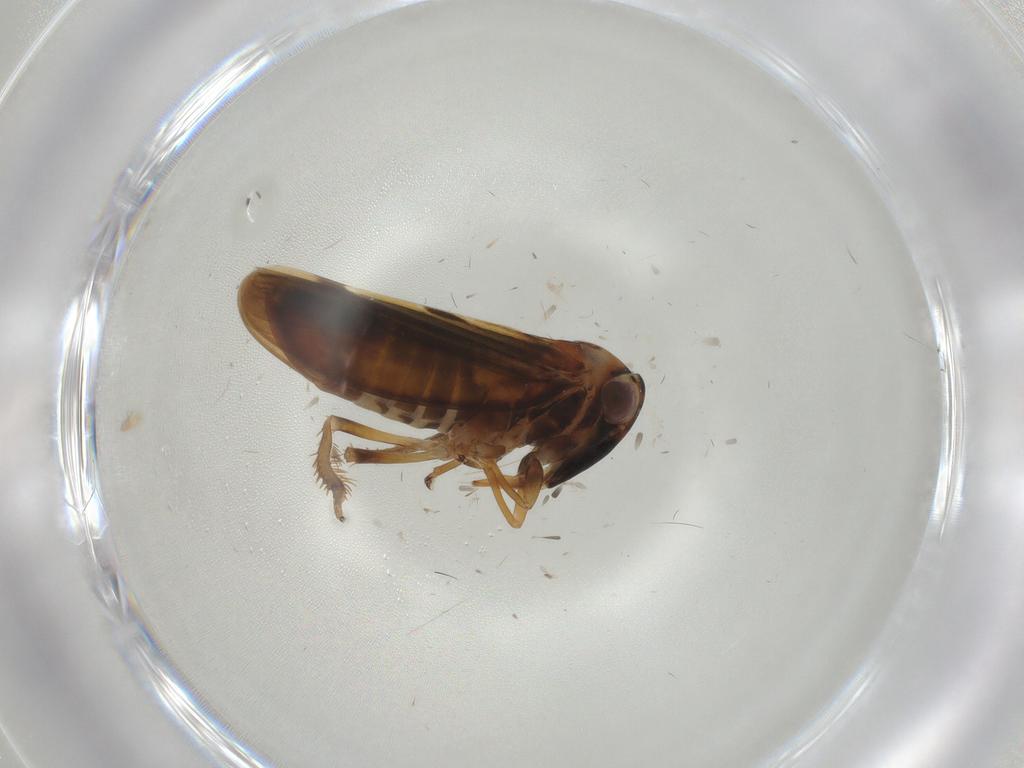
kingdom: Animalia
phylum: Arthropoda
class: Insecta
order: Hemiptera
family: Cicadellidae
